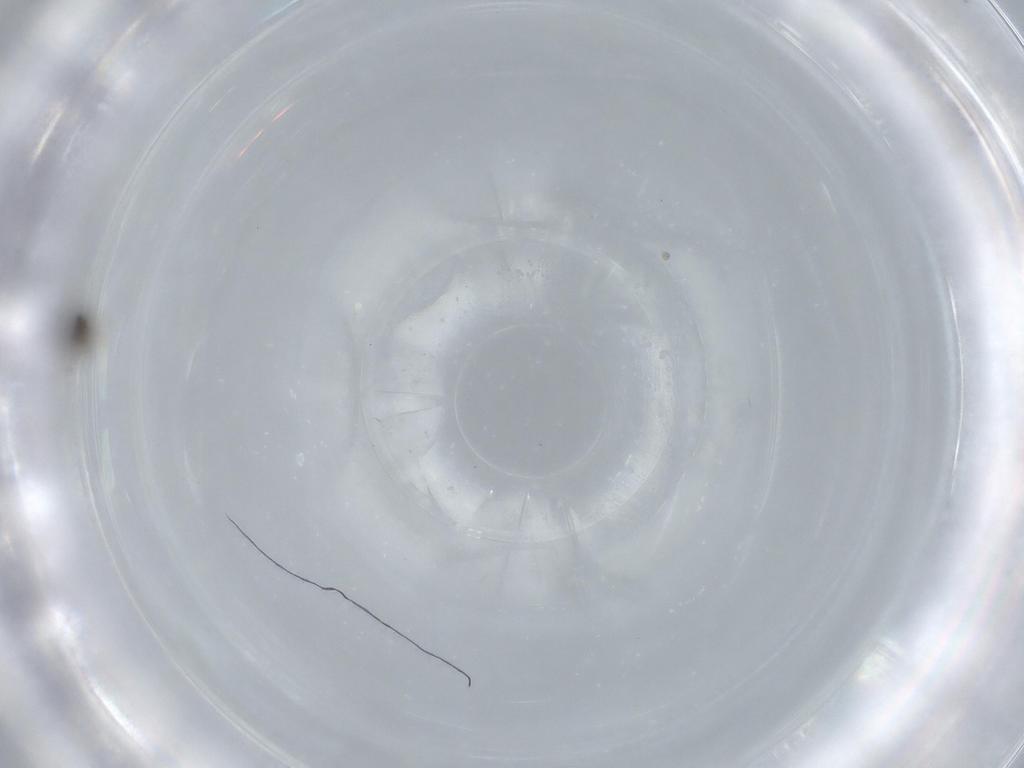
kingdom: Animalia
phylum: Arthropoda
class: Insecta
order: Diptera
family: Cecidomyiidae
